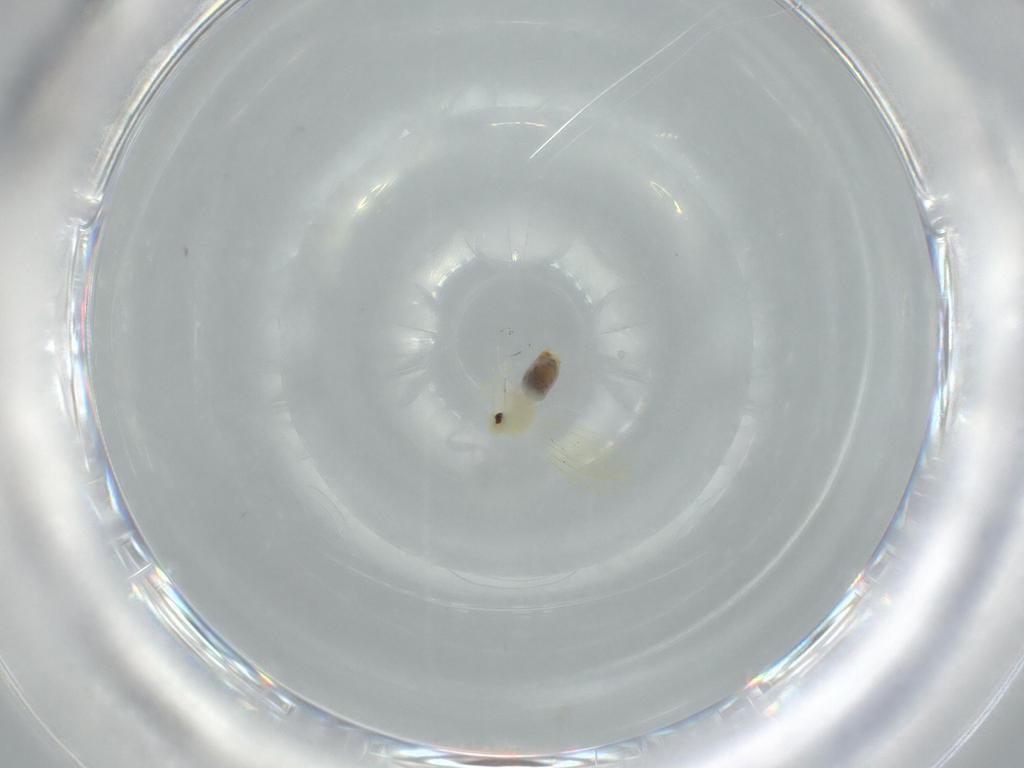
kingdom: Animalia
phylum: Arthropoda
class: Insecta
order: Diptera
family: Cecidomyiidae
